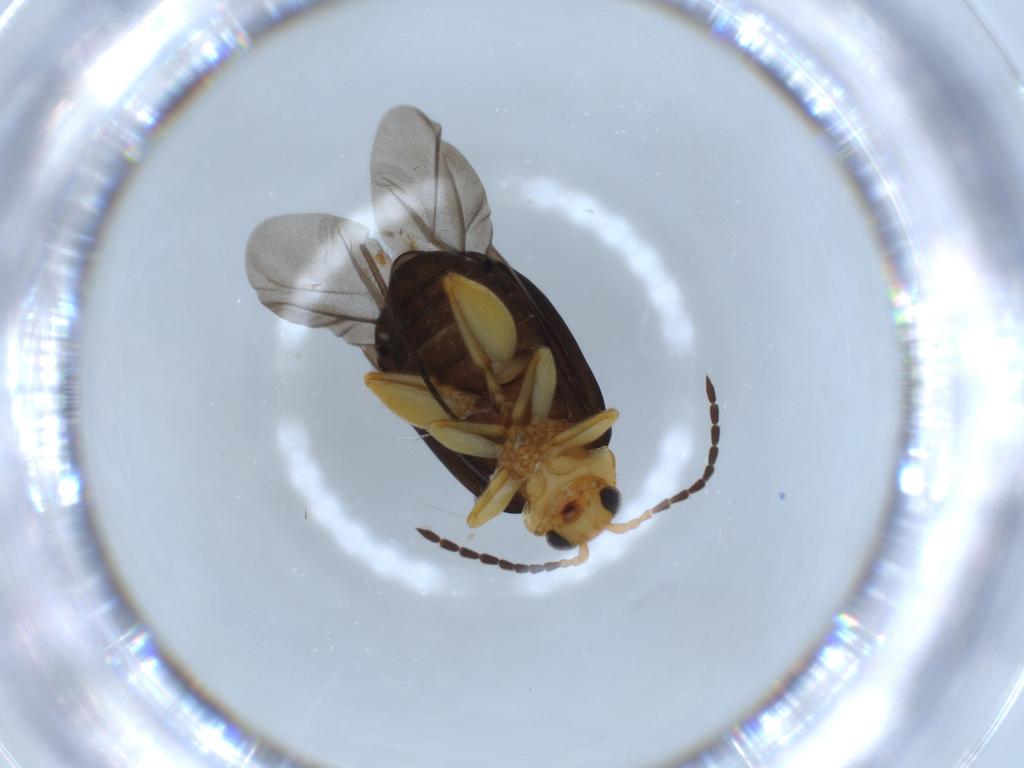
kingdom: Animalia
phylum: Arthropoda
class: Insecta
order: Coleoptera
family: Chrysomelidae
